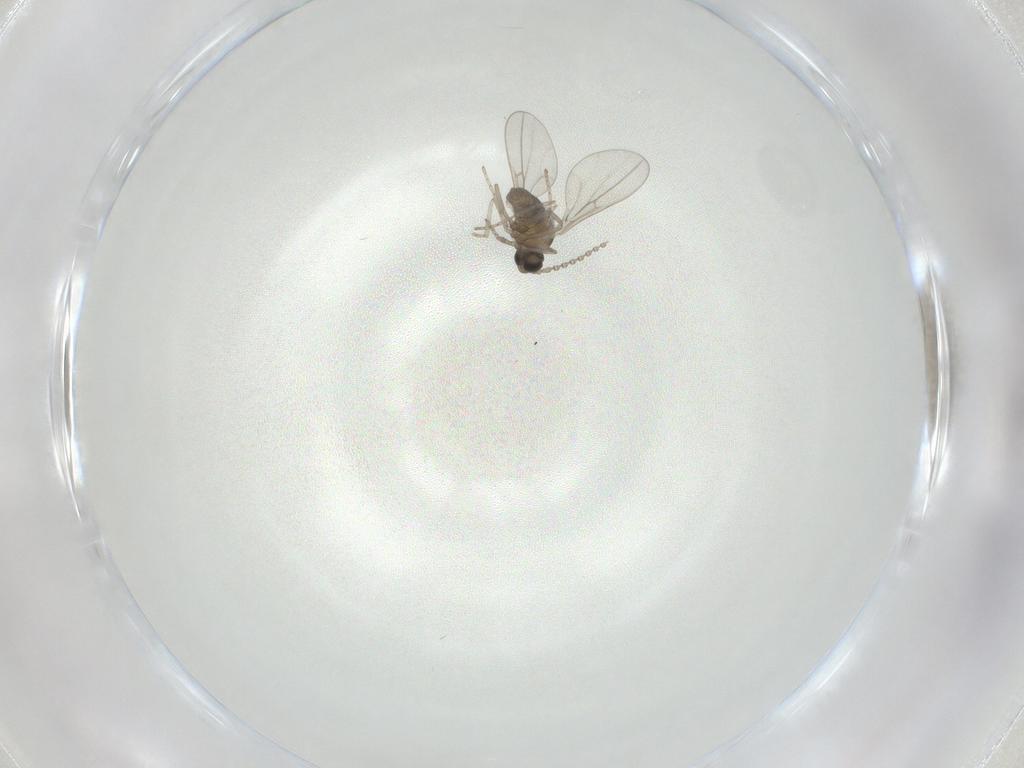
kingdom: Animalia
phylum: Arthropoda
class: Insecta
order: Diptera
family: Cecidomyiidae
